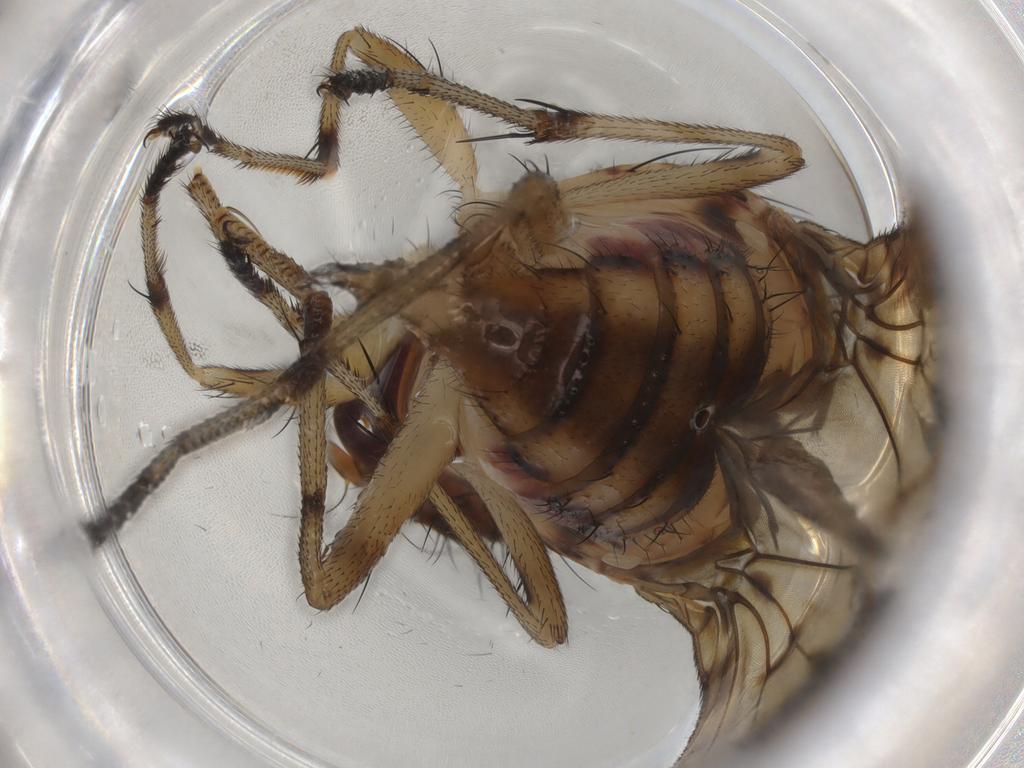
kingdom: Animalia
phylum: Arthropoda
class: Insecta
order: Diptera
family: Heleomyzidae
